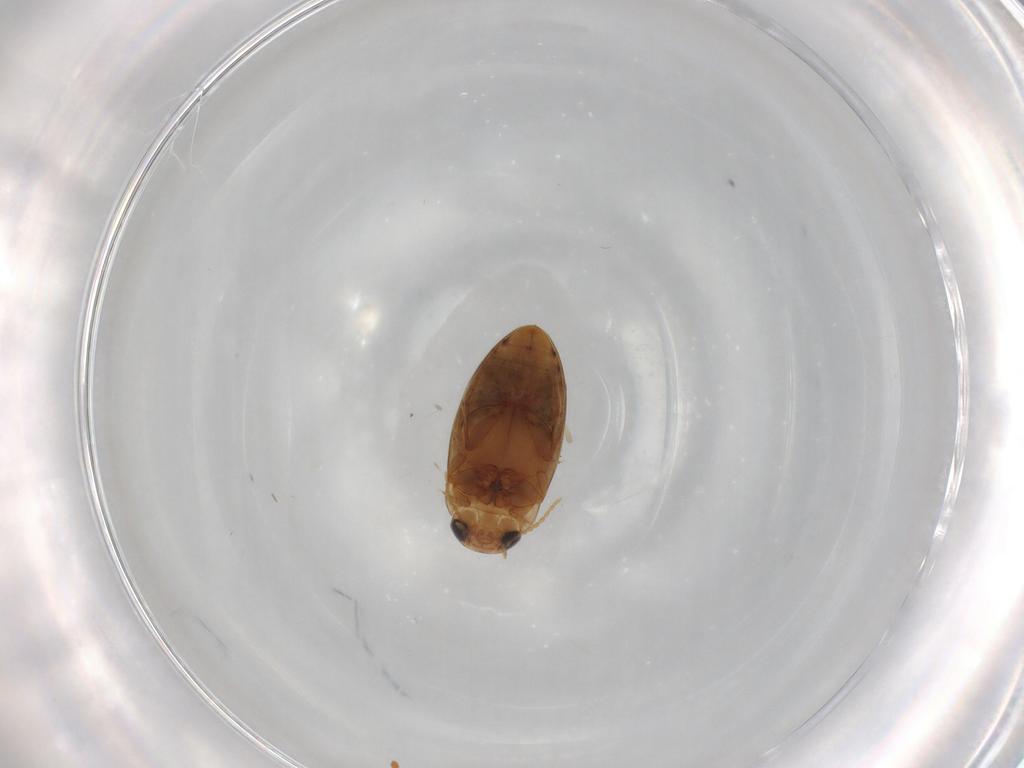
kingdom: Animalia
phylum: Arthropoda
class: Insecta
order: Coleoptera
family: Staphylinidae
